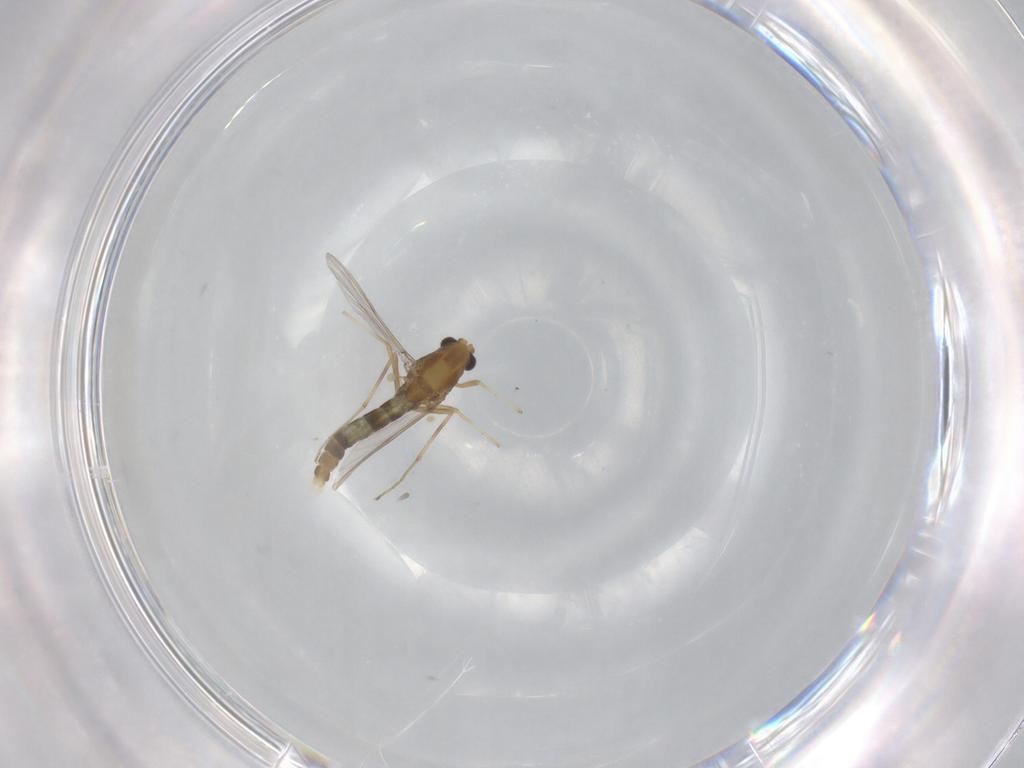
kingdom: Animalia
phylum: Arthropoda
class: Insecta
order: Diptera
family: Chironomidae
